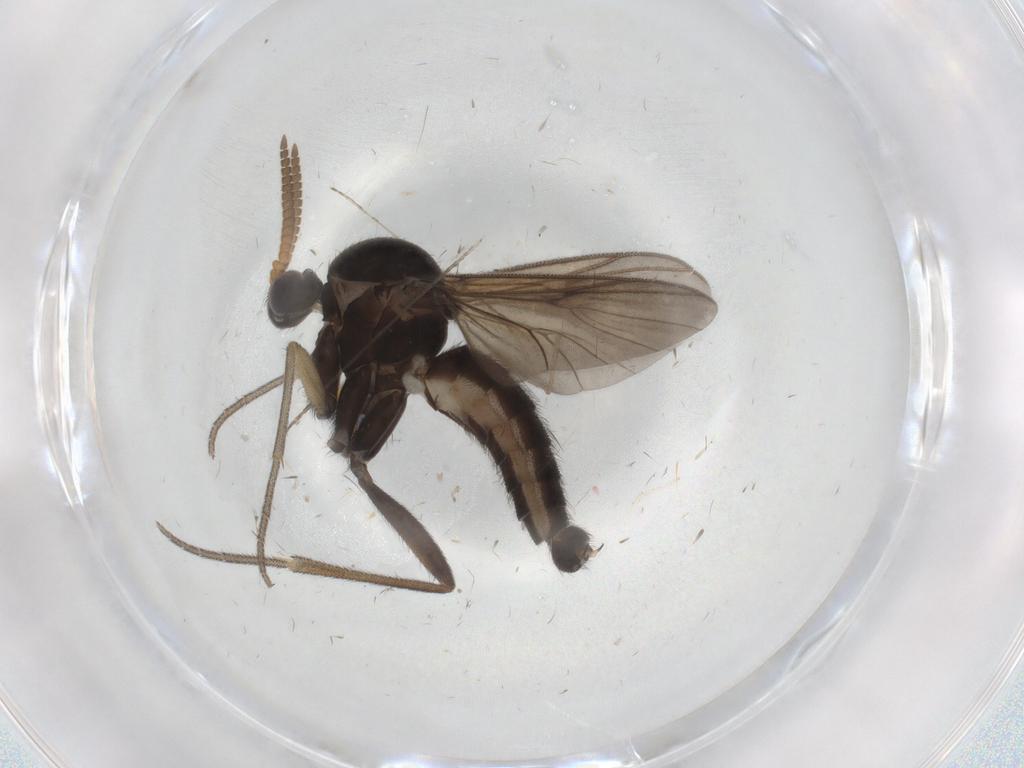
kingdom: Animalia
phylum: Arthropoda
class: Insecta
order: Diptera
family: Mycetophilidae
